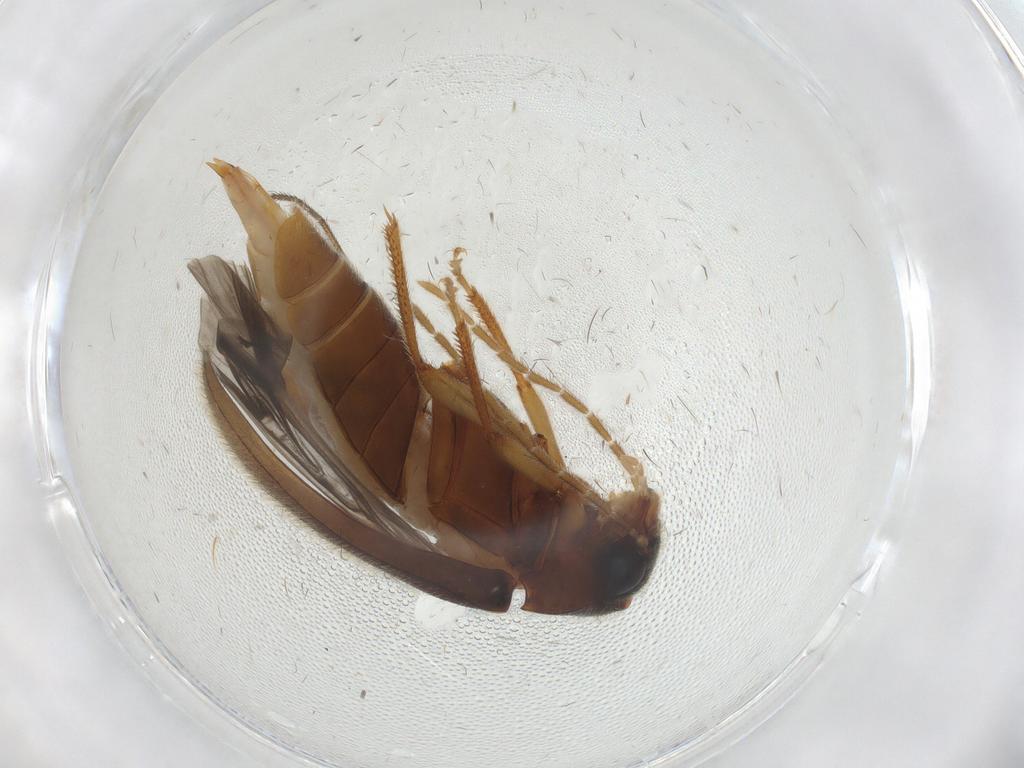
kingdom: Animalia
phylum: Arthropoda
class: Insecta
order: Coleoptera
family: Ptilodactylidae
